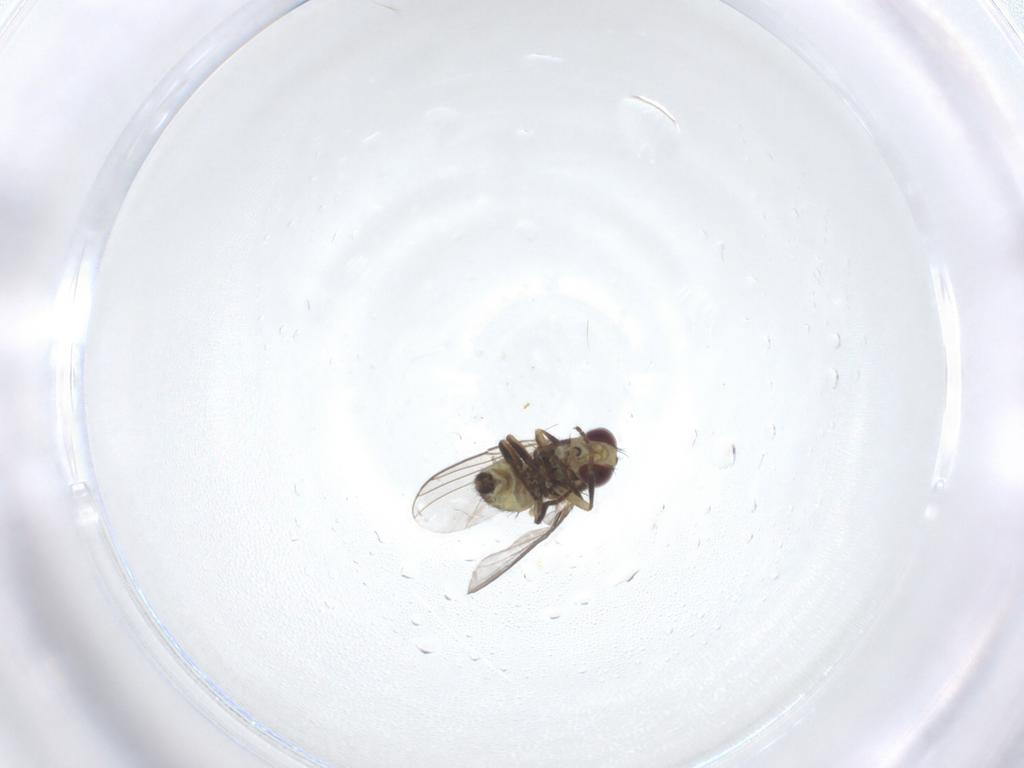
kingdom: Animalia
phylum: Arthropoda
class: Insecta
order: Diptera
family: Agromyzidae
